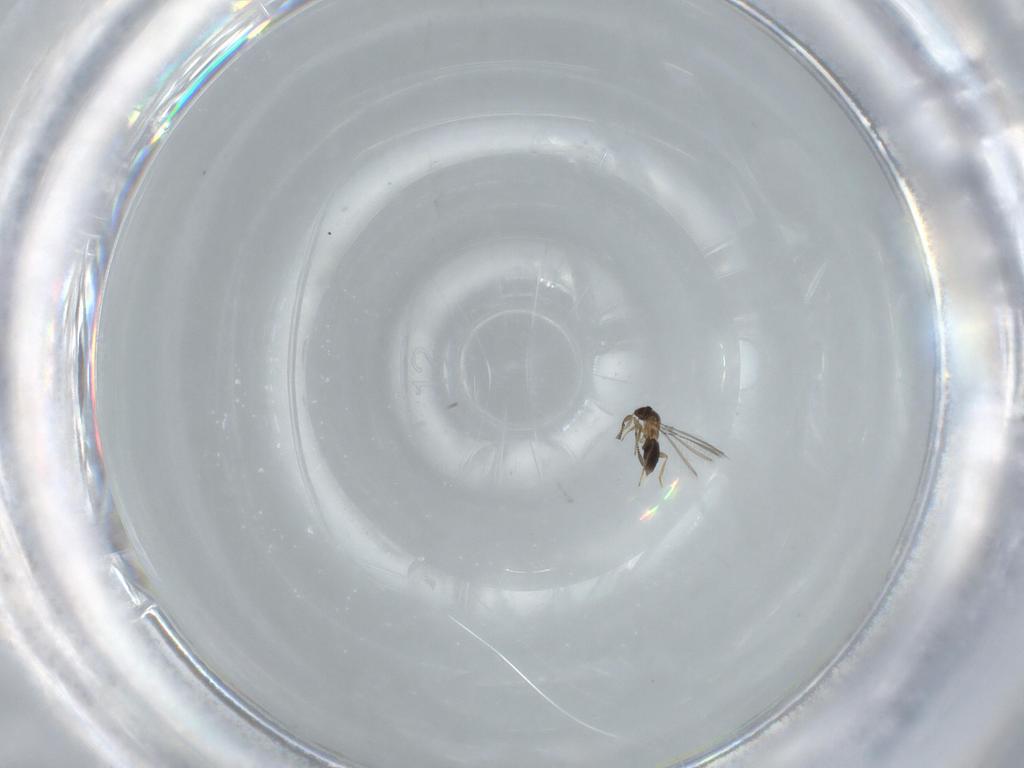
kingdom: Animalia
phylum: Arthropoda
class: Insecta
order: Hymenoptera
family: Mymaridae
